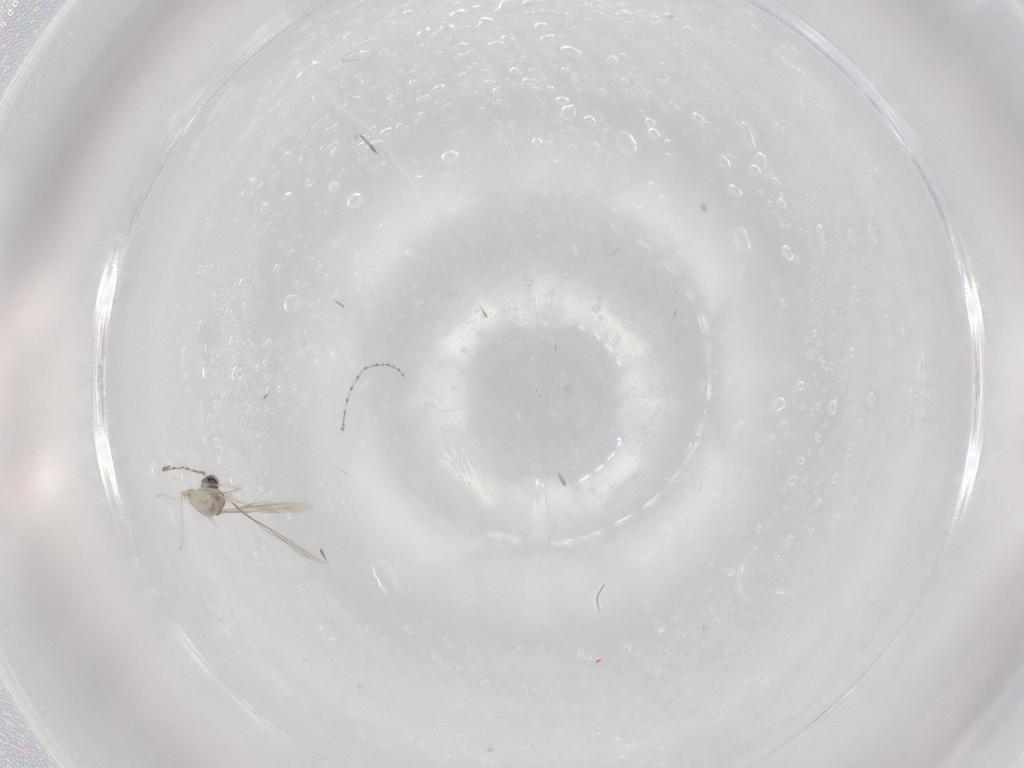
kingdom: Animalia
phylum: Arthropoda
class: Insecta
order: Diptera
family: Cecidomyiidae
